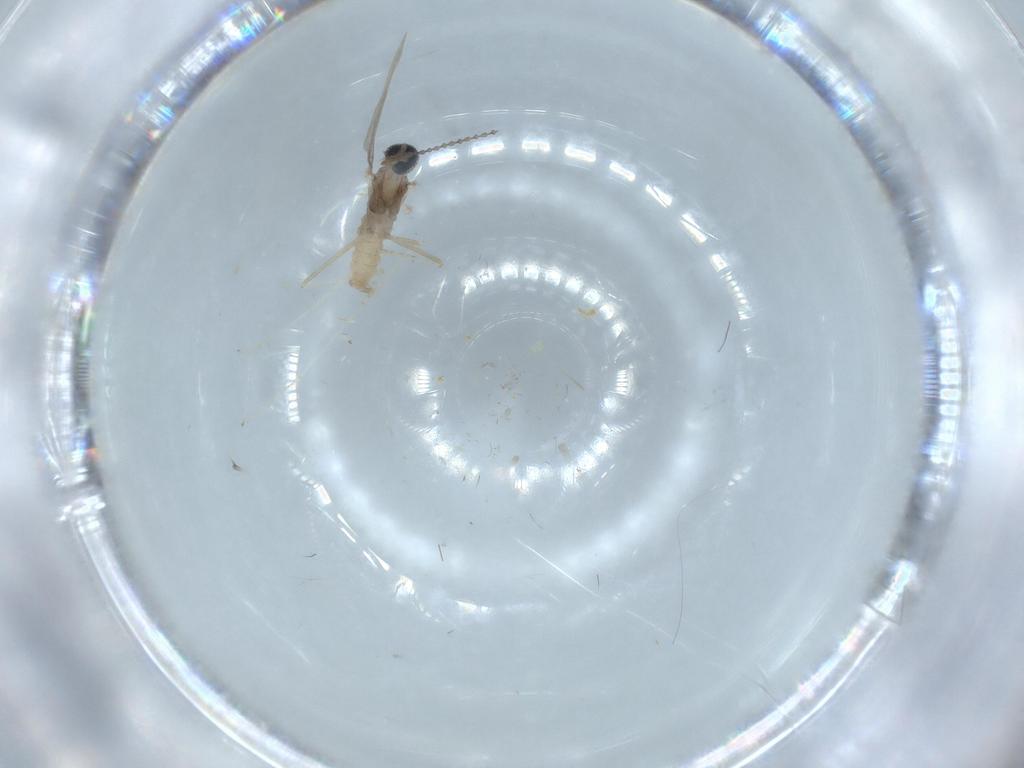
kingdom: Animalia
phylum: Arthropoda
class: Insecta
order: Diptera
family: Cecidomyiidae
